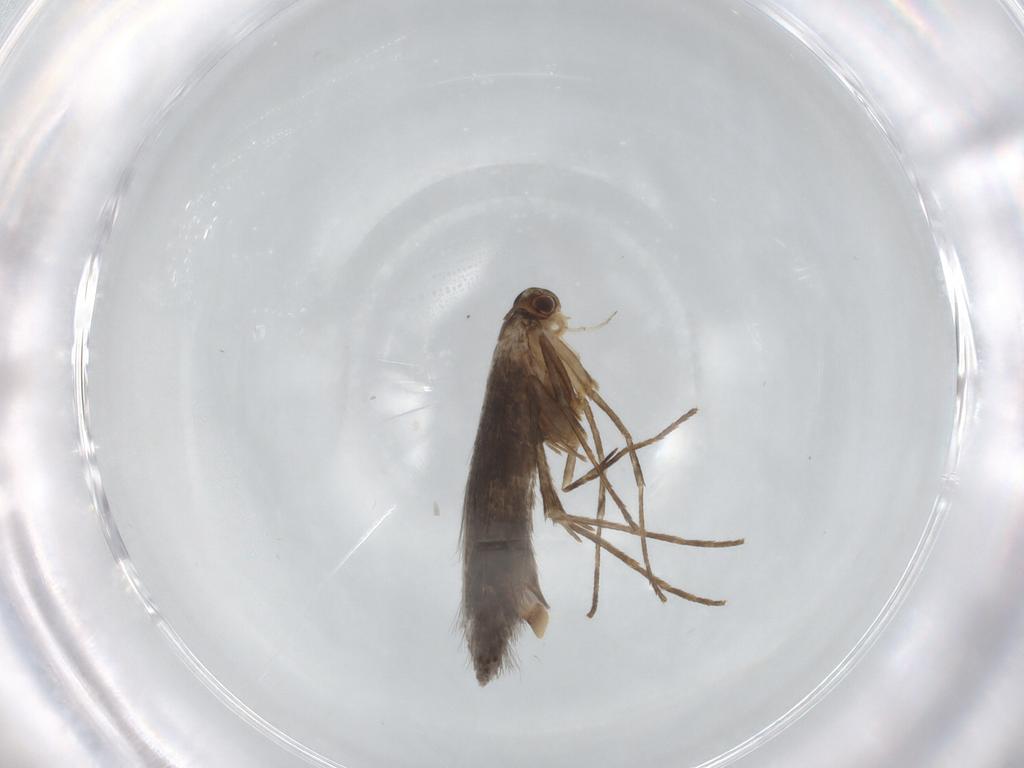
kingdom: Animalia
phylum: Arthropoda
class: Insecta
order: Lepidoptera
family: Gracillariidae
